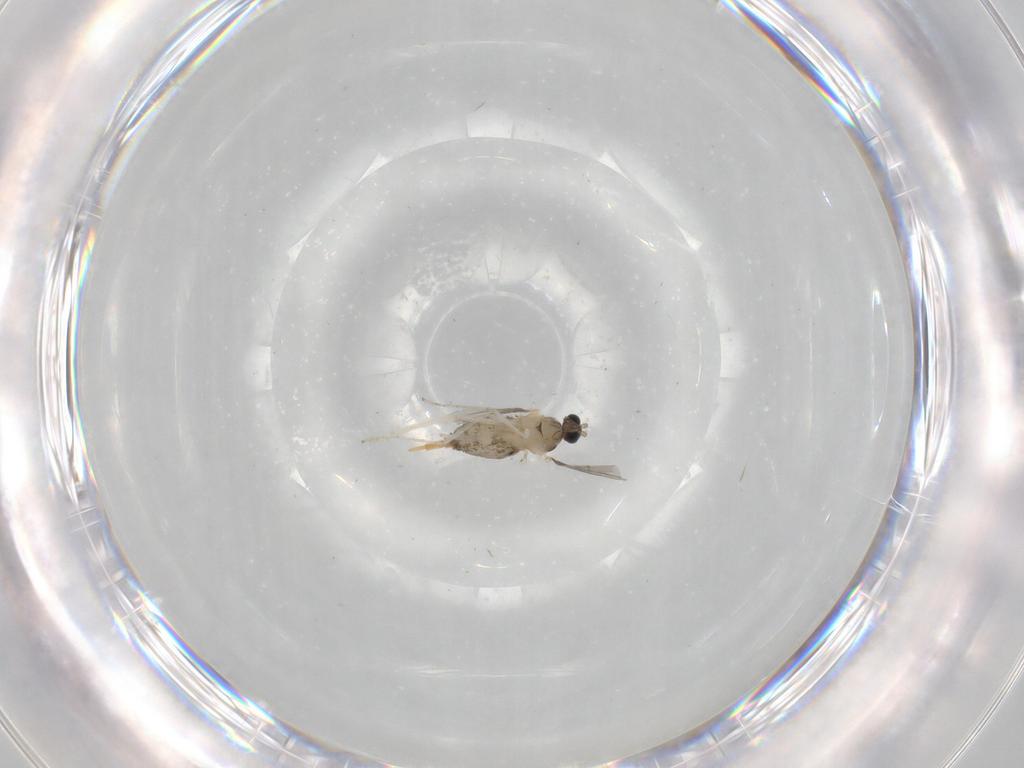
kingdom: Animalia
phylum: Arthropoda
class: Insecta
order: Diptera
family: Cecidomyiidae
